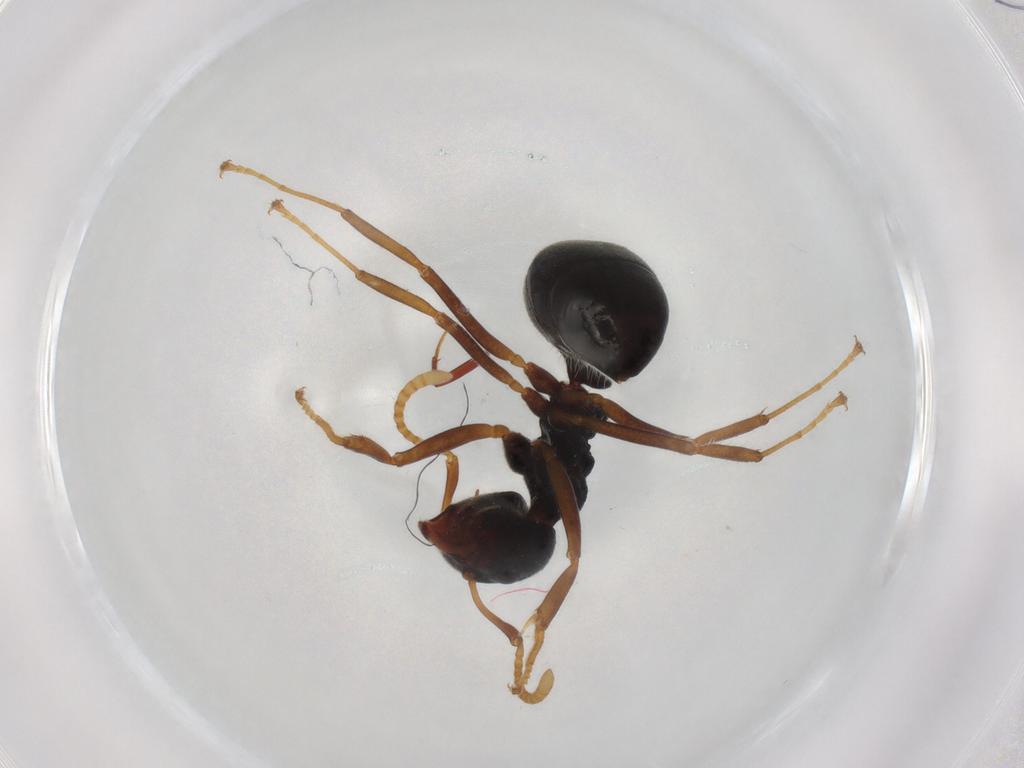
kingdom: Animalia
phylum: Arthropoda
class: Insecta
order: Hymenoptera
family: Formicidae
